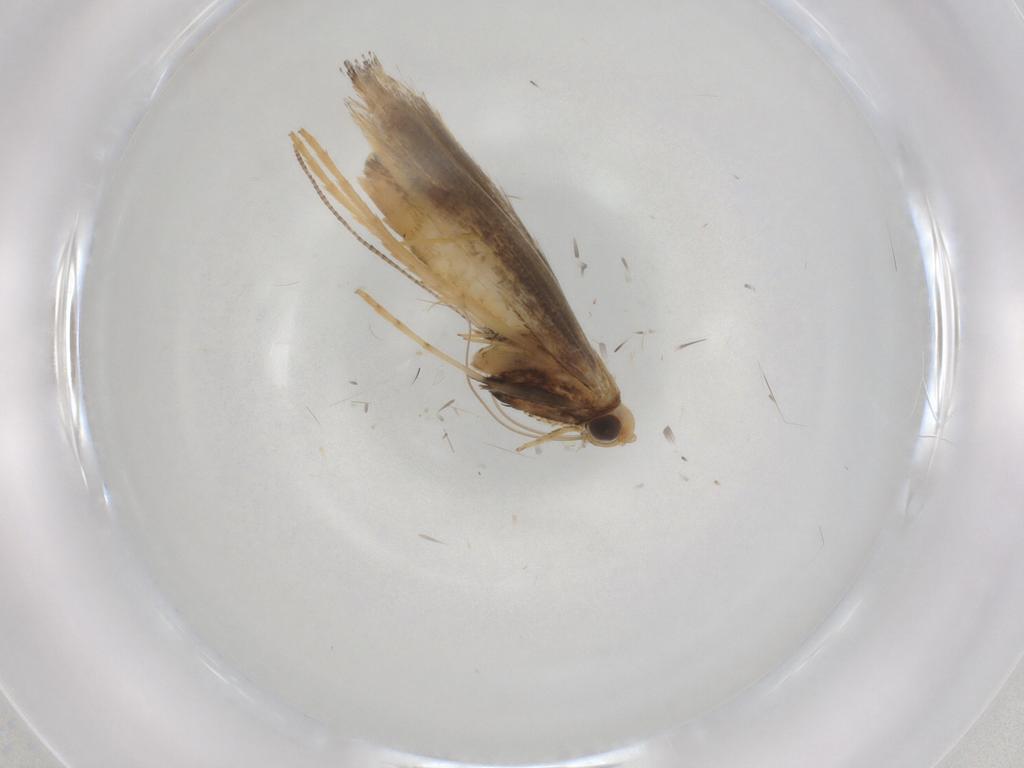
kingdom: Animalia
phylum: Arthropoda
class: Insecta
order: Lepidoptera
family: Gracillariidae
